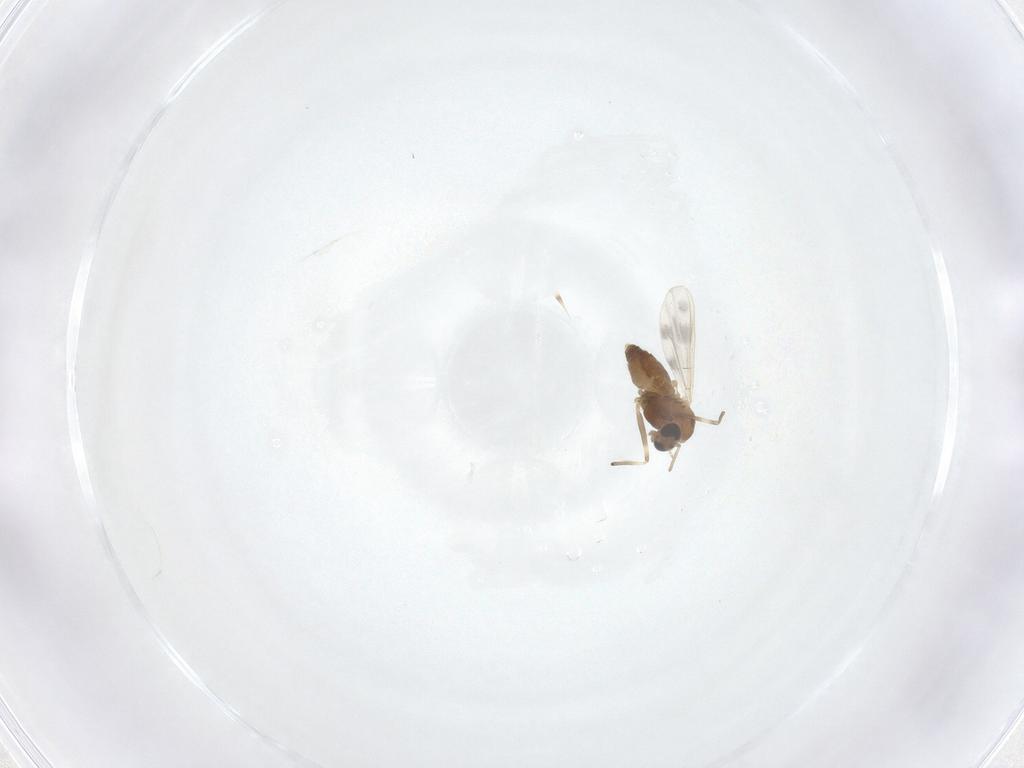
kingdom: Animalia
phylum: Arthropoda
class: Insecta
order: Diptera
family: Chironomidae
